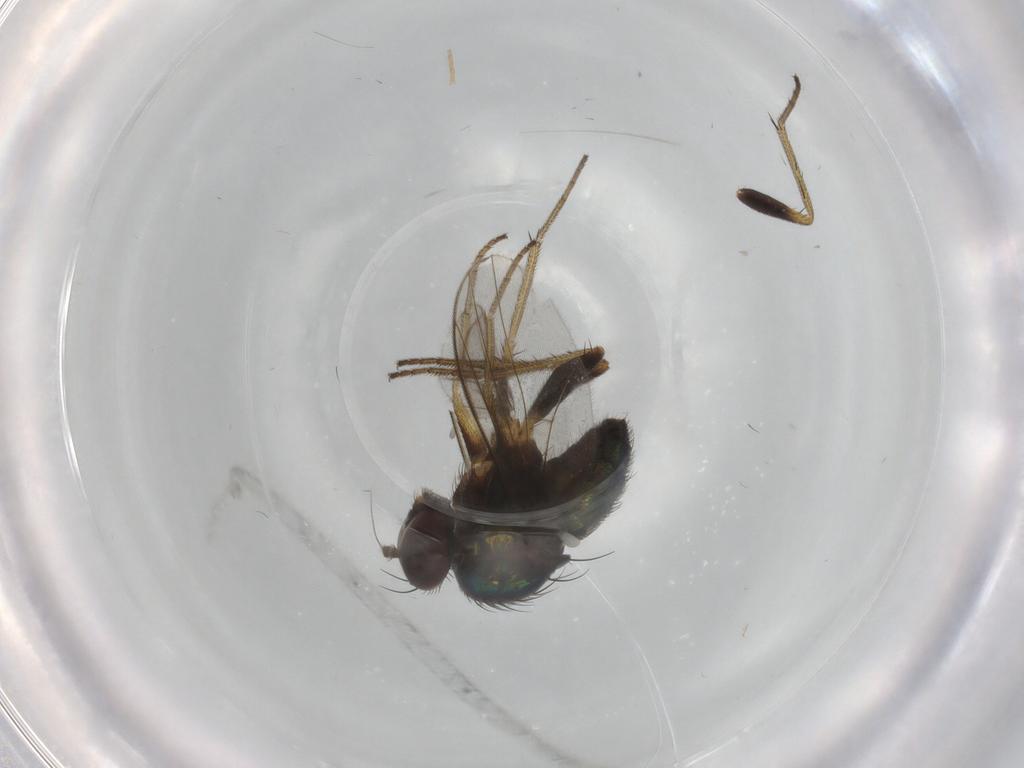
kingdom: Animalia
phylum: Arthropoda
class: Insecta
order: Diptera
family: Dolichopodidae
